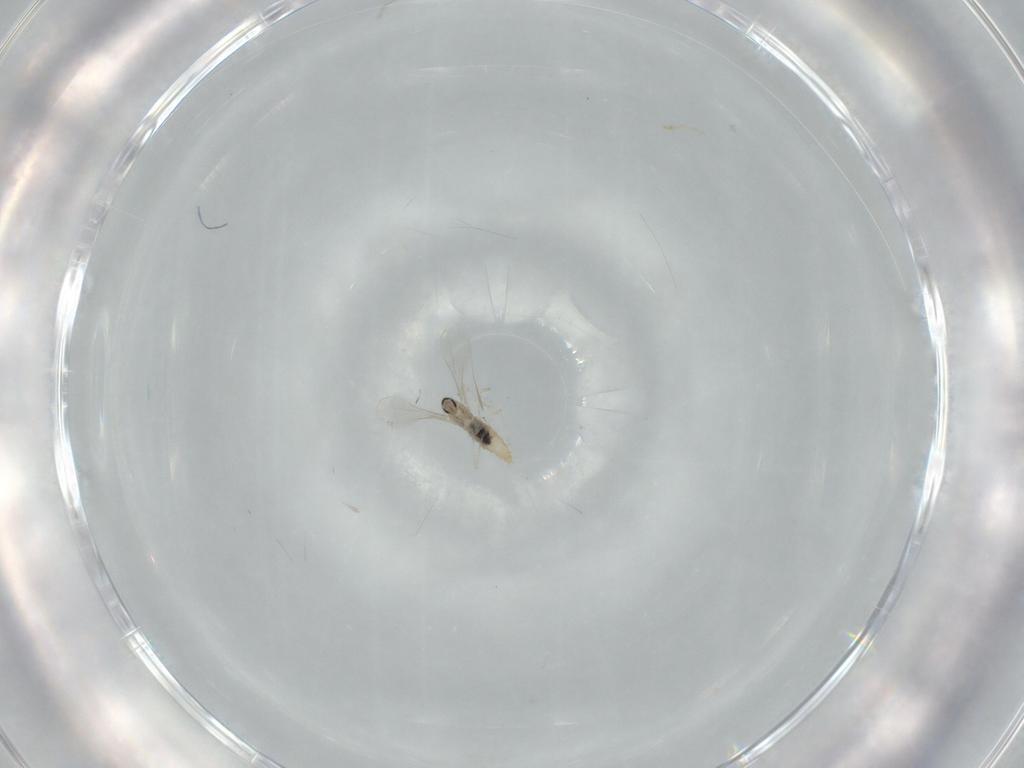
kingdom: Animalia
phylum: Arthropoda
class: Insecta
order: Diptera
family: Cecidomyiidae
